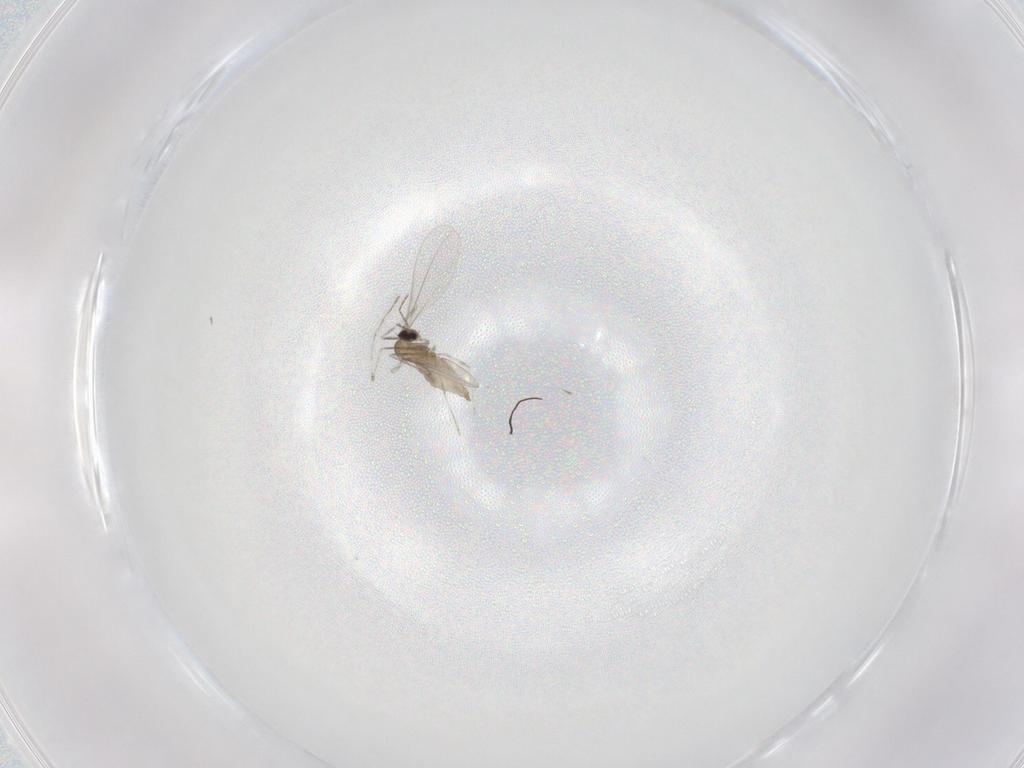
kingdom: Animalia
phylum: Arthropoda
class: Insecta
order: Diptera
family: Cecidomyiidae
